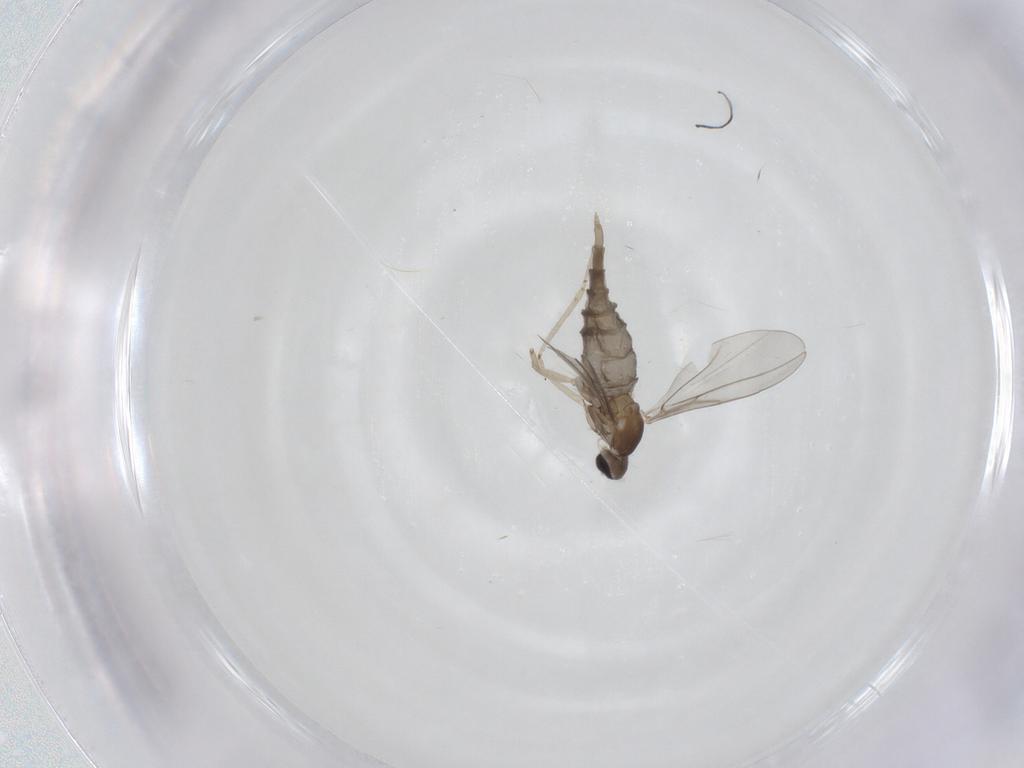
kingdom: Animalia
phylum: Arthropoda
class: Insecta
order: Diptera
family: Cecidomyiidae
